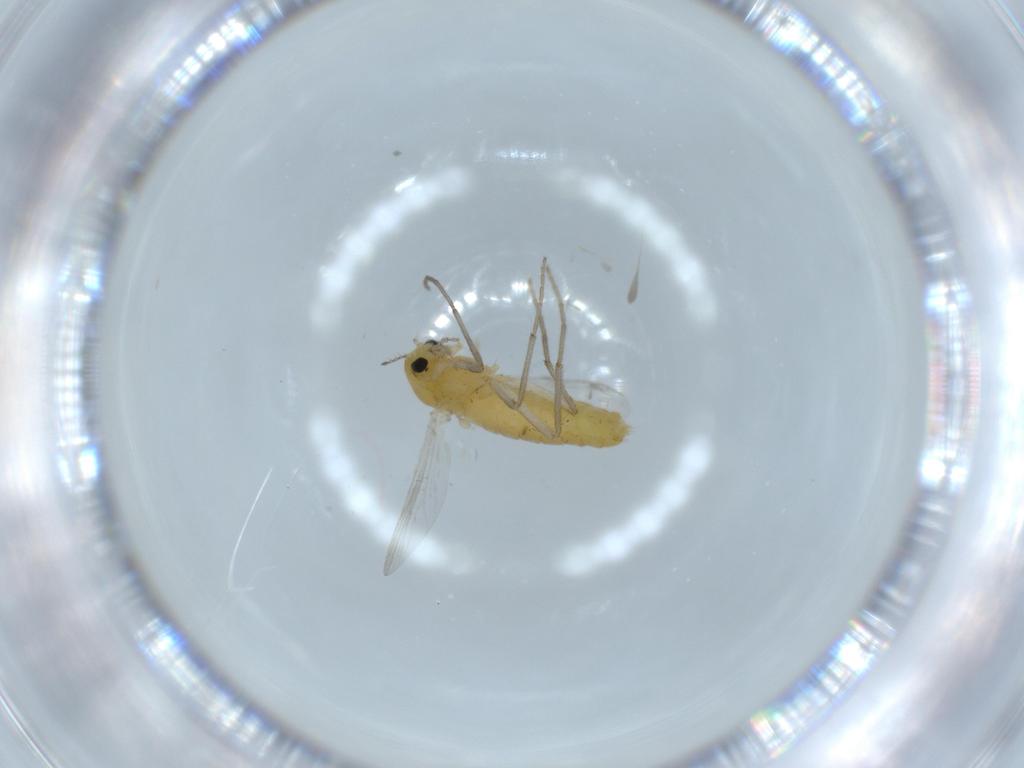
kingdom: Animalia
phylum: Arthropoda
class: Insecta
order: Diptera
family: Chironomidae
